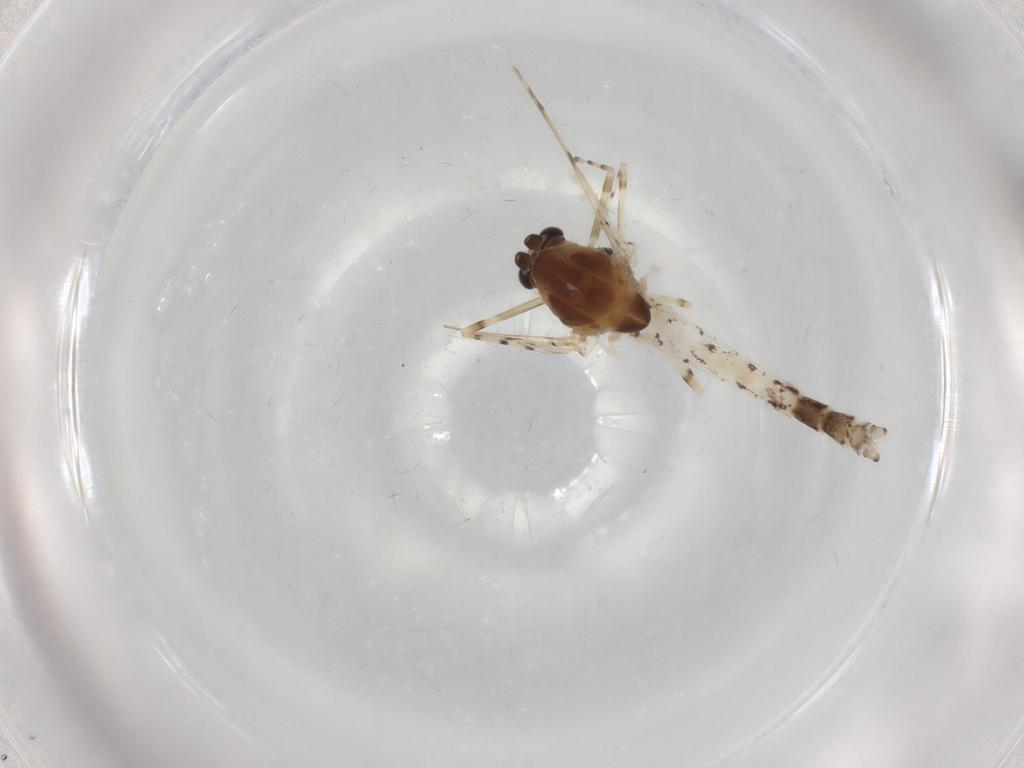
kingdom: Animalia
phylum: Arthropoda
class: Insecta
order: Diptera
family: Chironomidae
